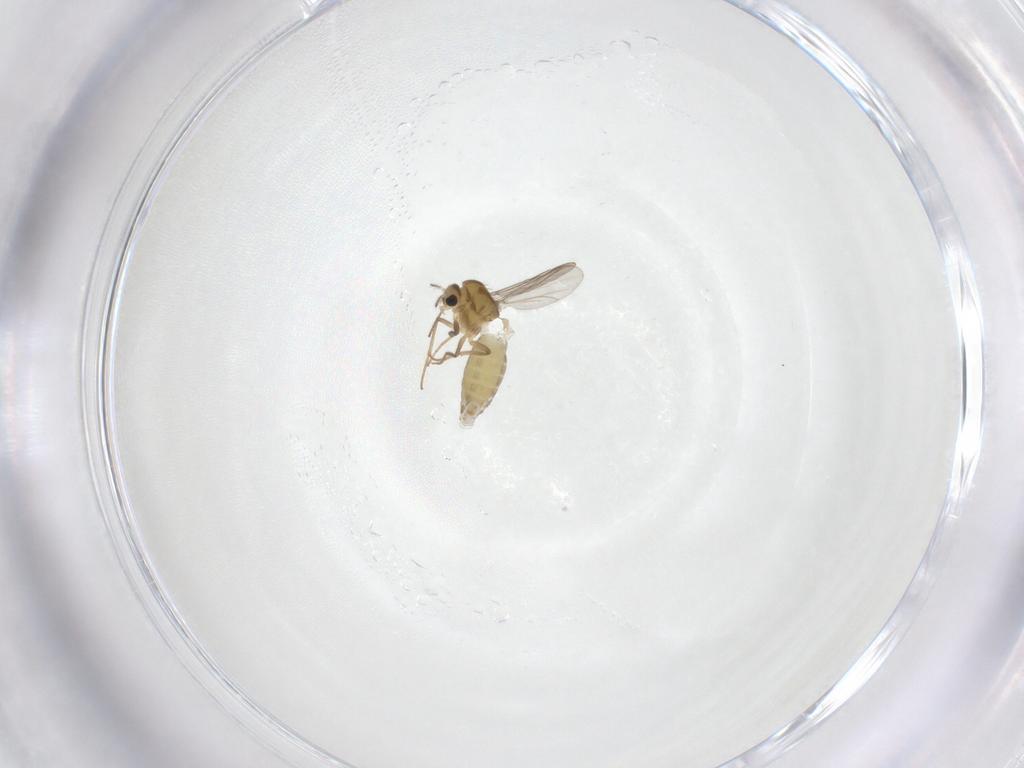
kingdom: Animalia
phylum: Arthropoda
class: Insecta
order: Diptera
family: Chironomidae
